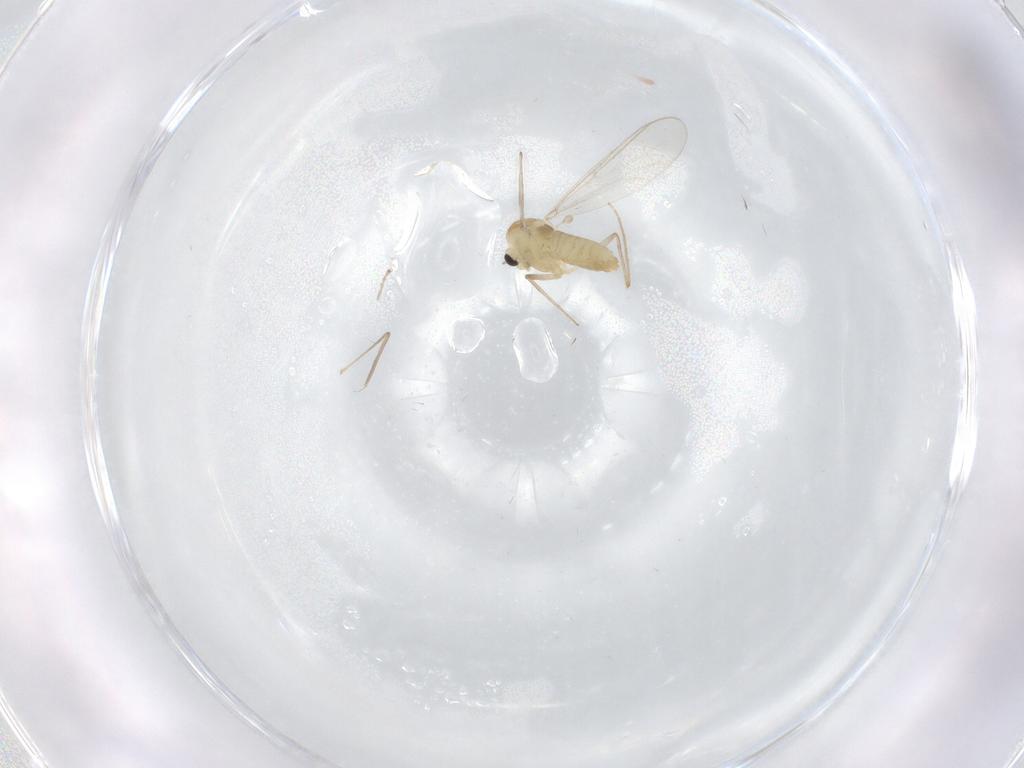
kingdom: Animalia
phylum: Arthropoda
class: Insecta
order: Diptera
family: Chironomidae
